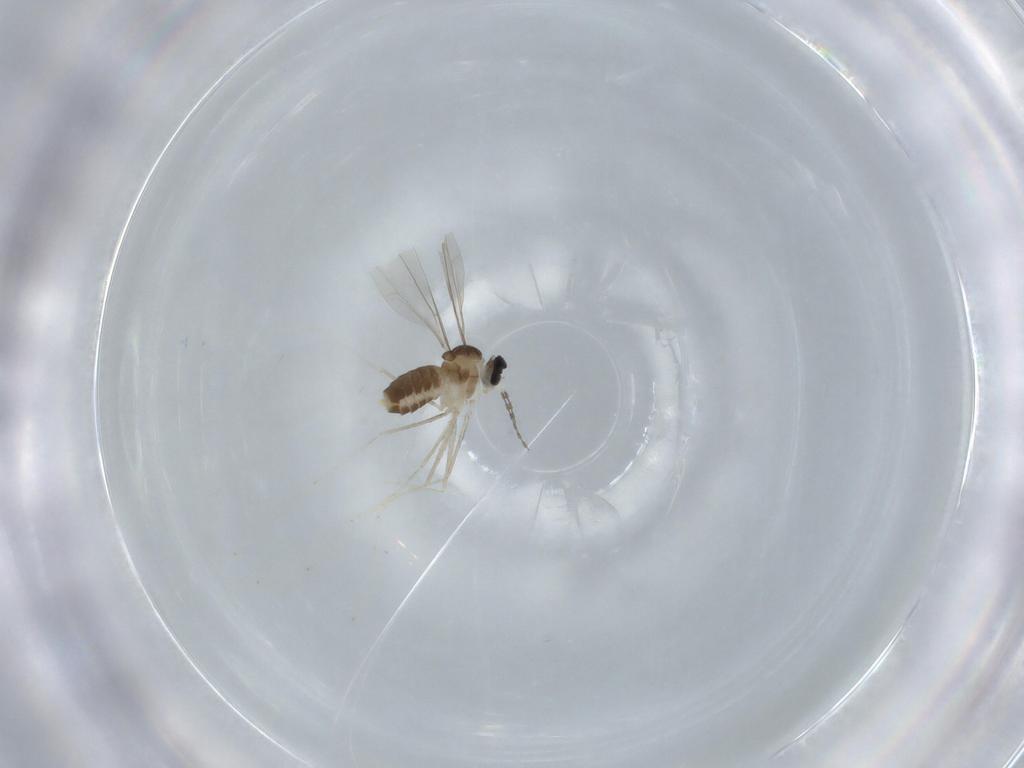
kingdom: Animalia
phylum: Arthropoda
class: Insecta
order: Diptera
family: Cecidomyiidae
